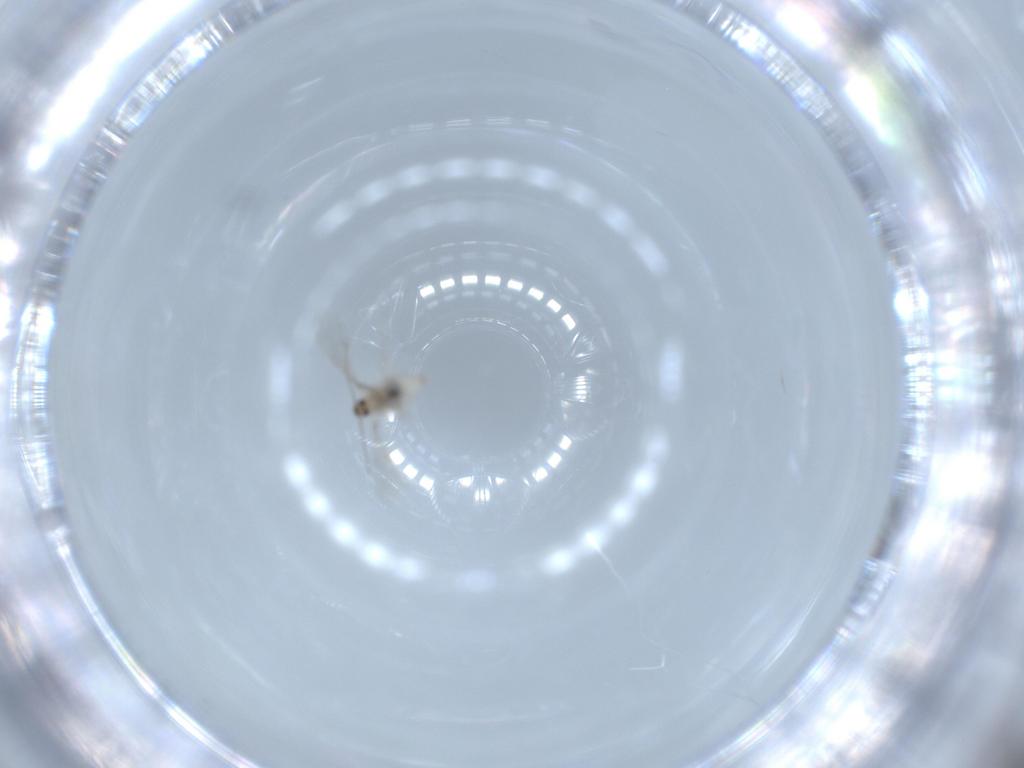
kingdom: Animalia
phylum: Arthropoda
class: Insecta
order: Diptera
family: Cecidomyiidae
